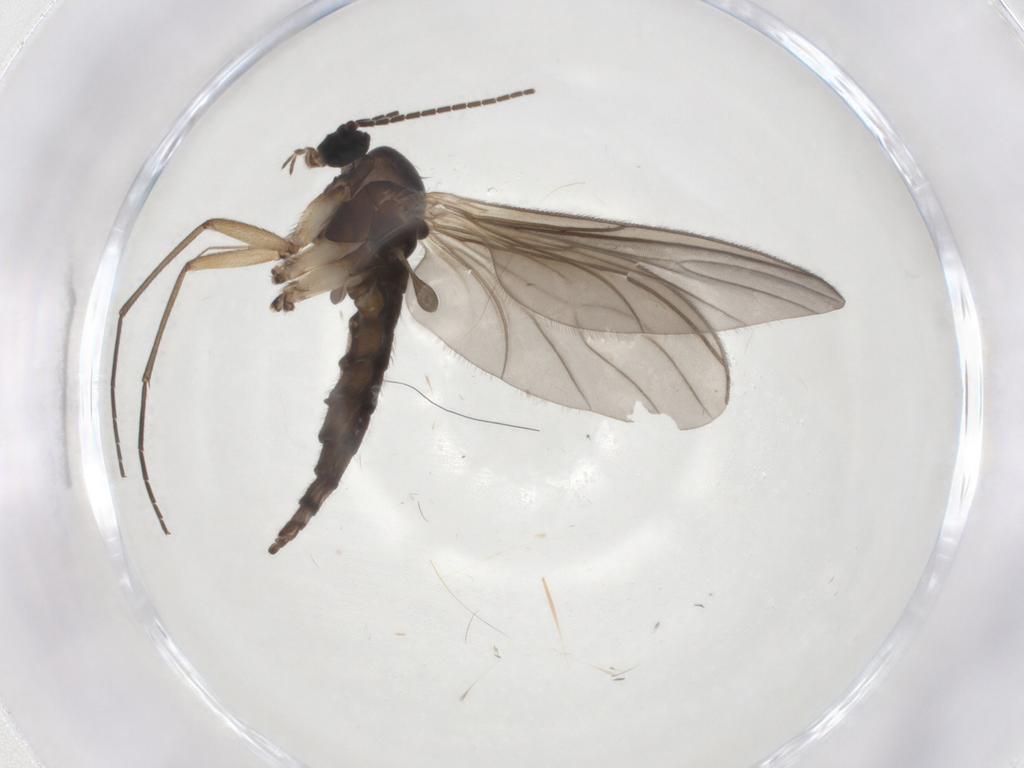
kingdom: Animalia
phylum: Arthropoda
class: Insecta
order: Diptera
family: Sciaridae
